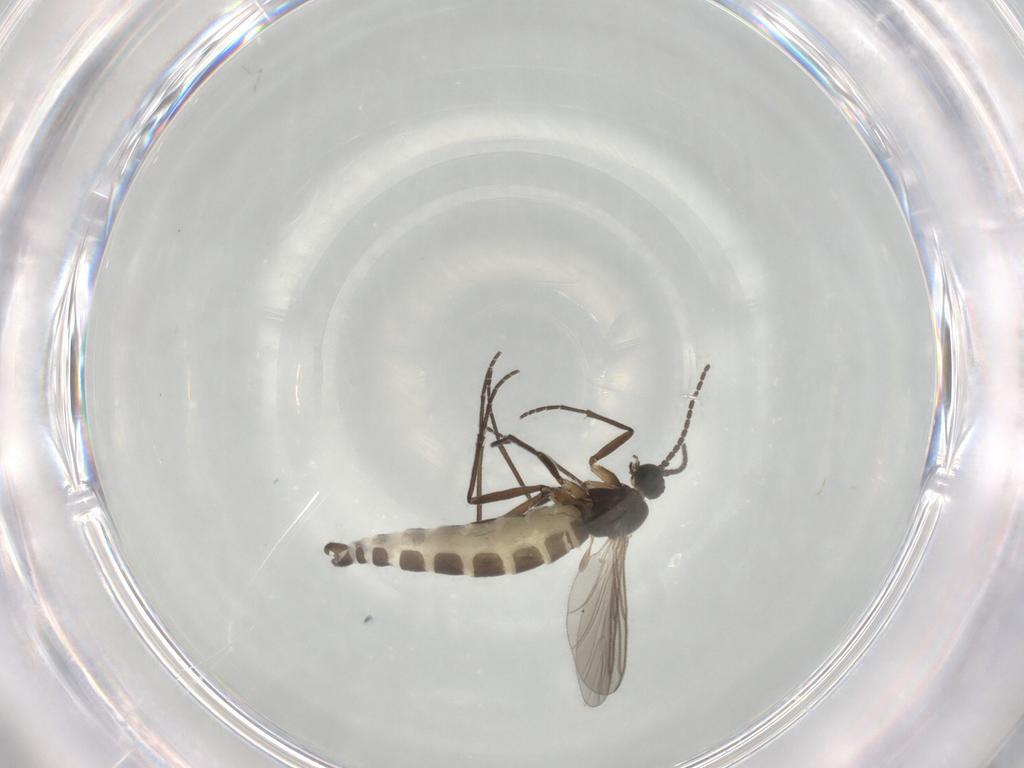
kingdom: Animalia
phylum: Arthropoda
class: Insecta
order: Diptera
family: Sciaridae
